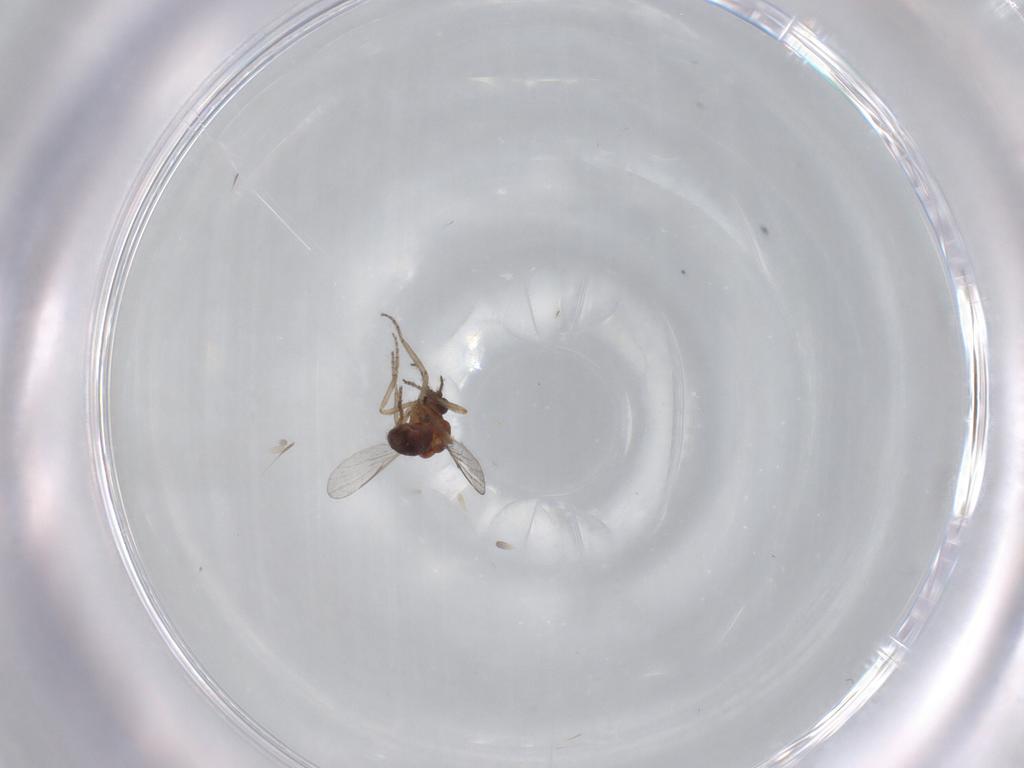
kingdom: Animalia
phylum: Arthropoda
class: Insecta
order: Diptera
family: Ceratopogonidae
